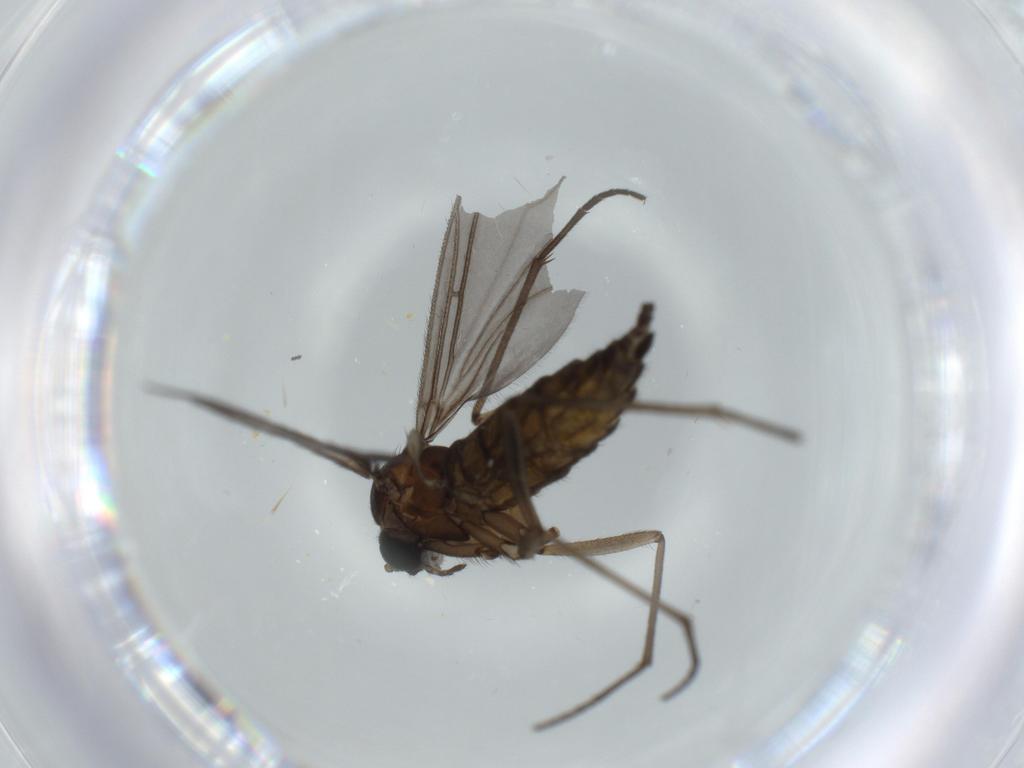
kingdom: Animalia
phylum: Arthropoda
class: Insecta
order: Diptera
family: Sciaridae
